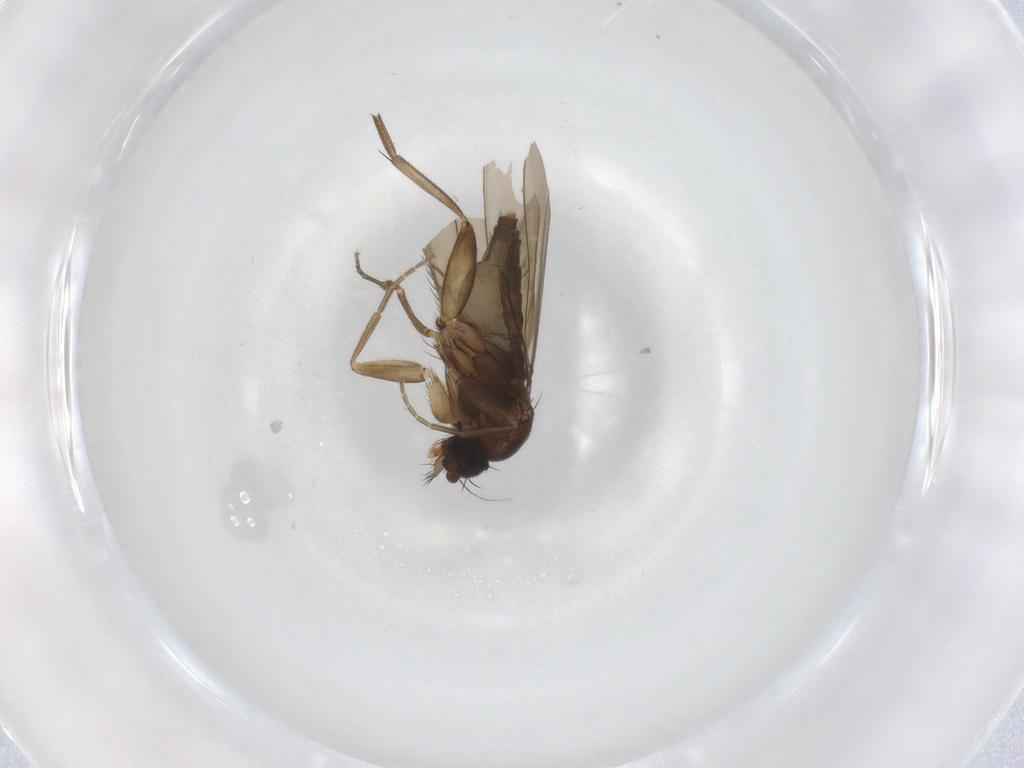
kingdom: Animalia
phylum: Arthropoda
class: Insecta
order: Diptera
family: Phoridae
